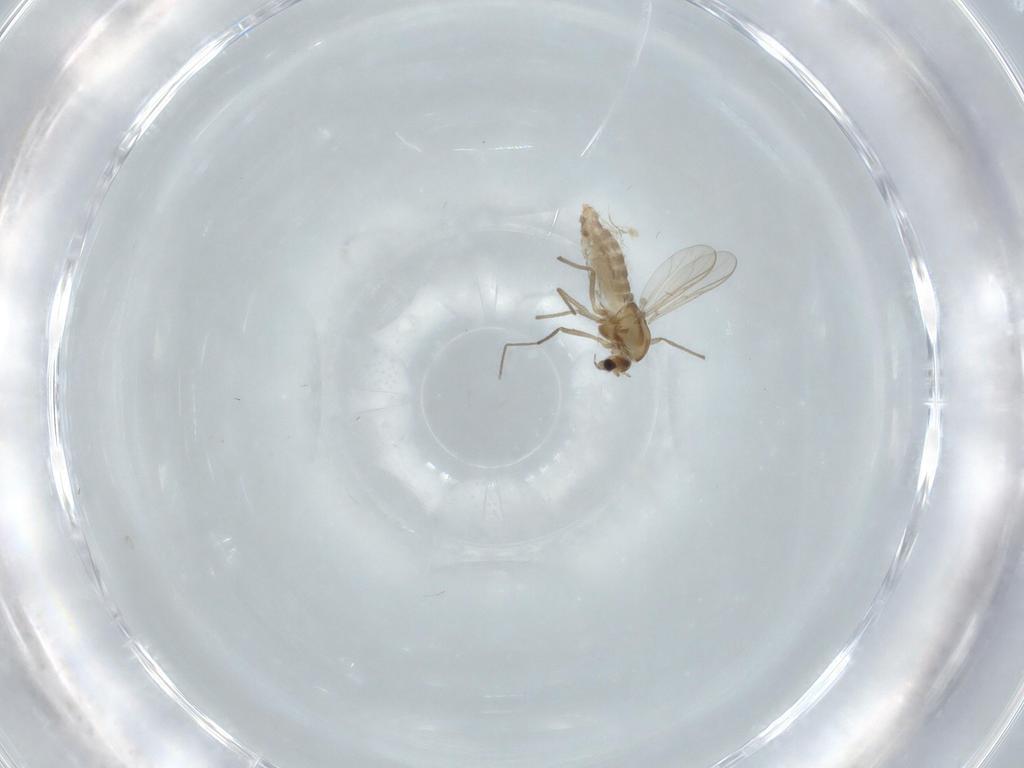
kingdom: Animalia
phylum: Arthropoda
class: Insecta
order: Diptera
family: Chironomidae
